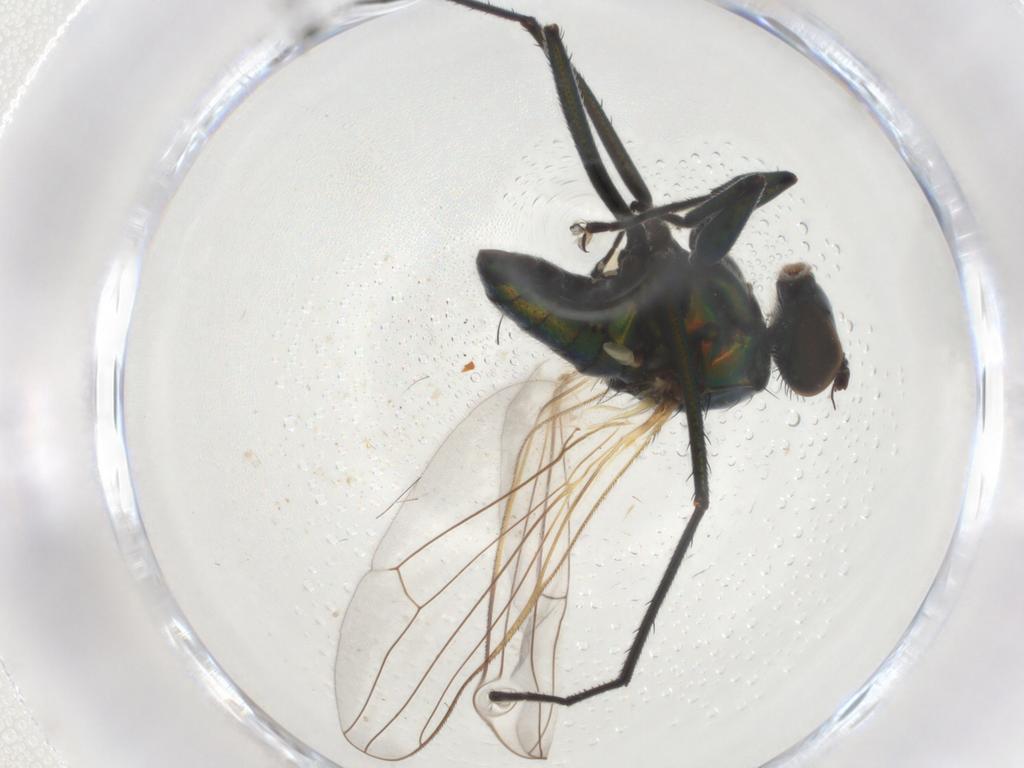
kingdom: Animalia
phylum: Arthropoda
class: Insecta
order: Diptera
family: Dolichopodidae
